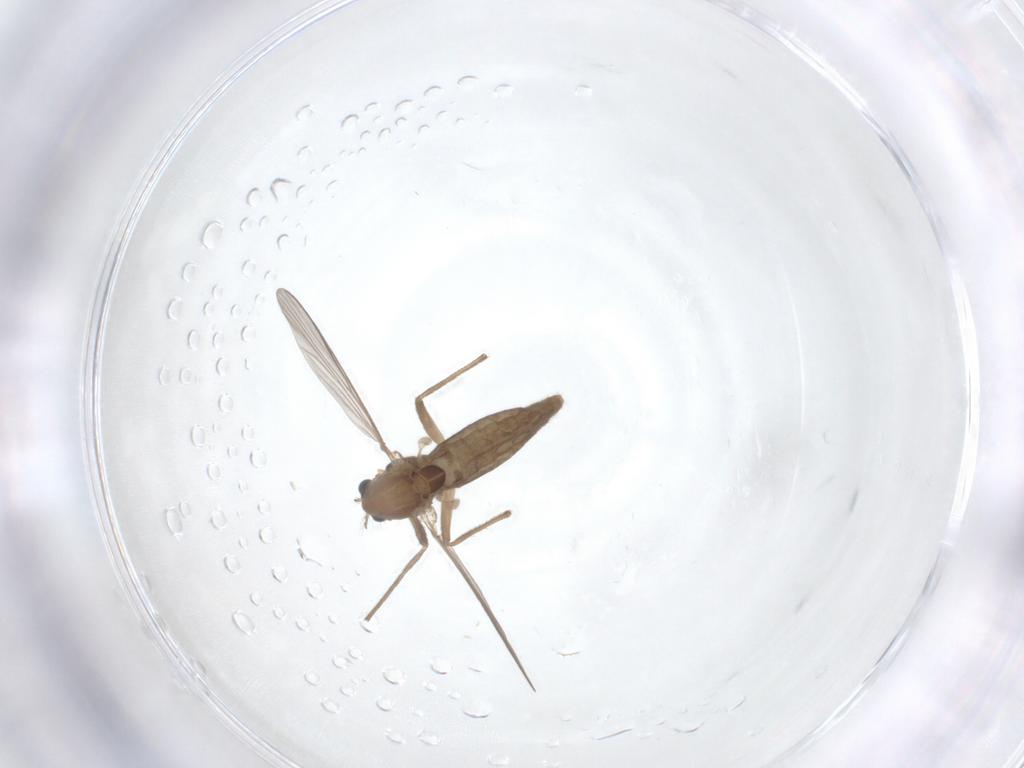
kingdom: Animalia
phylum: Arthropoda
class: Insecta
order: Diptera
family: Chironomidae
